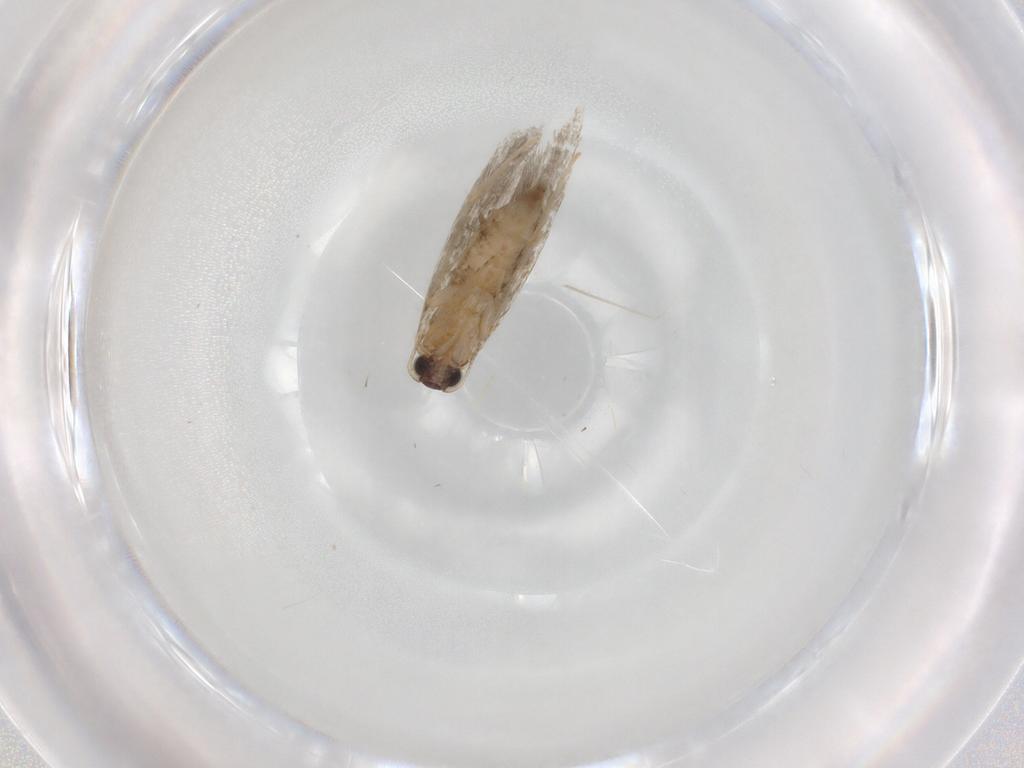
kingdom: Animalia
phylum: Arthropoda
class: Insecta
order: Lepidoptera
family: Tineidae
